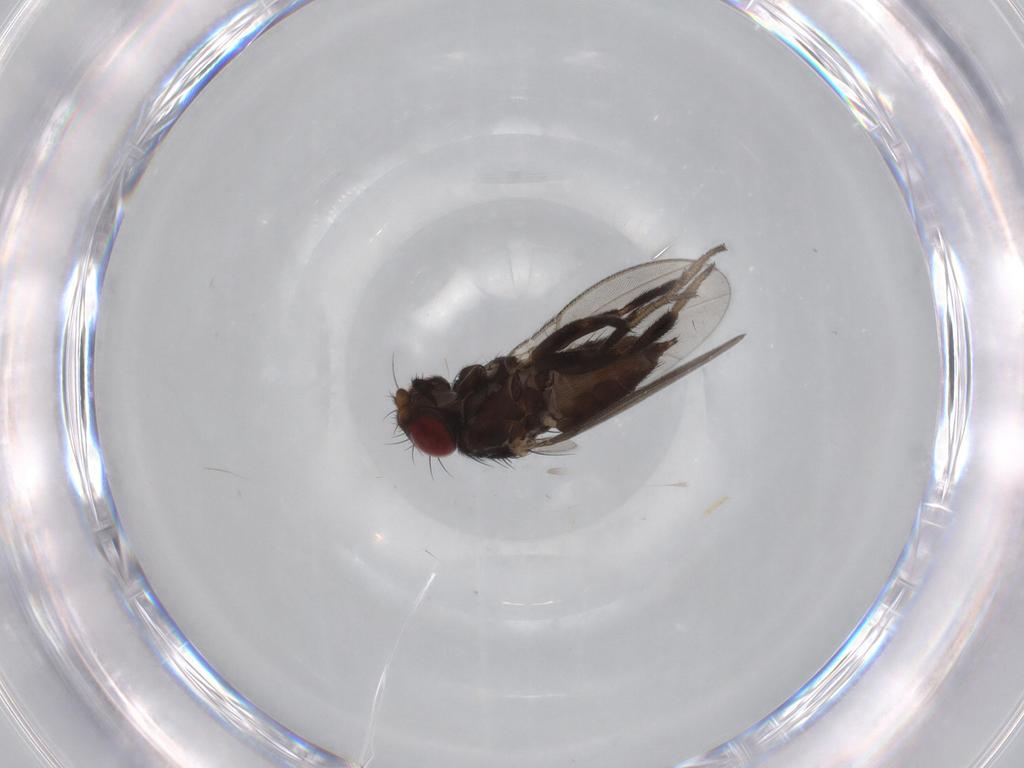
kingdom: Animalia
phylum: Arthropoda
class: Insecta
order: Diptera
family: Milichiidae
